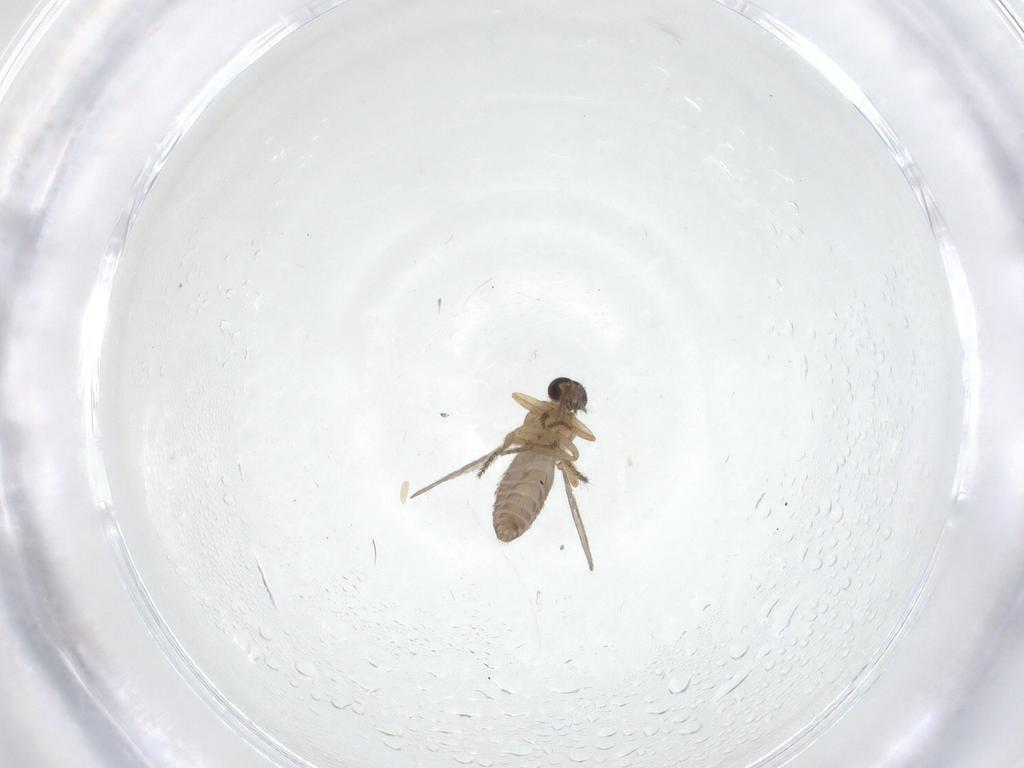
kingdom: Animalia
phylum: Arthropoda
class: Insecta
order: Diptera
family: Ceratopogonidae
